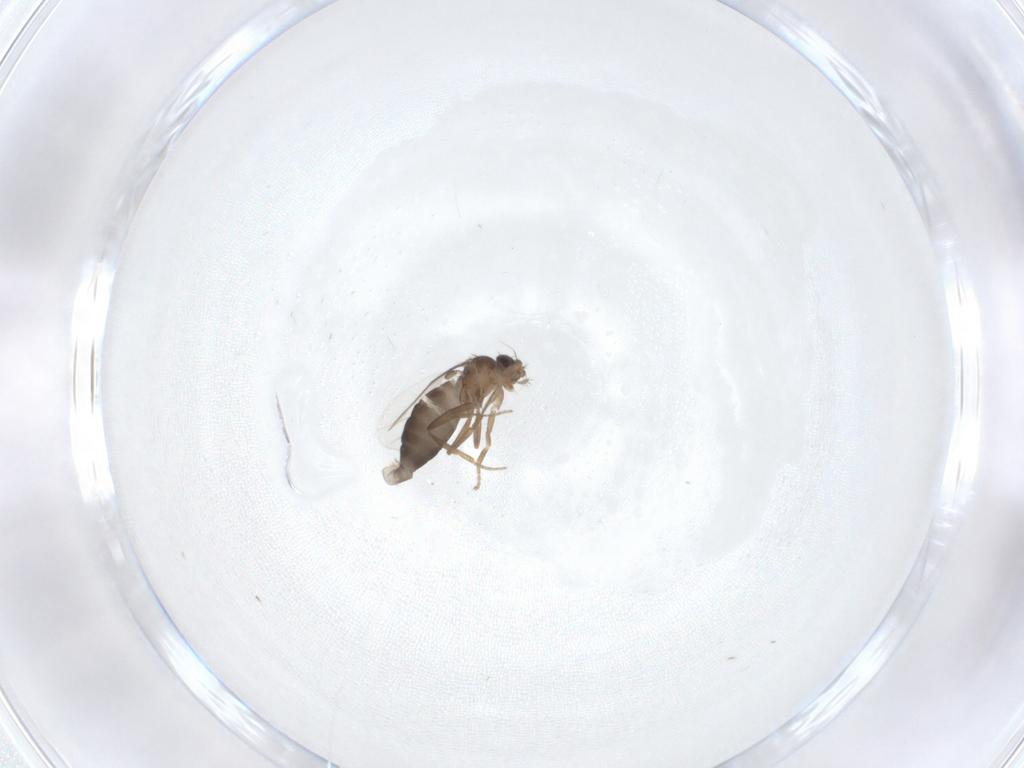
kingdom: Animalia
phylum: Arthropoda
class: Insecta
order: Diptera
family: Phoridae
